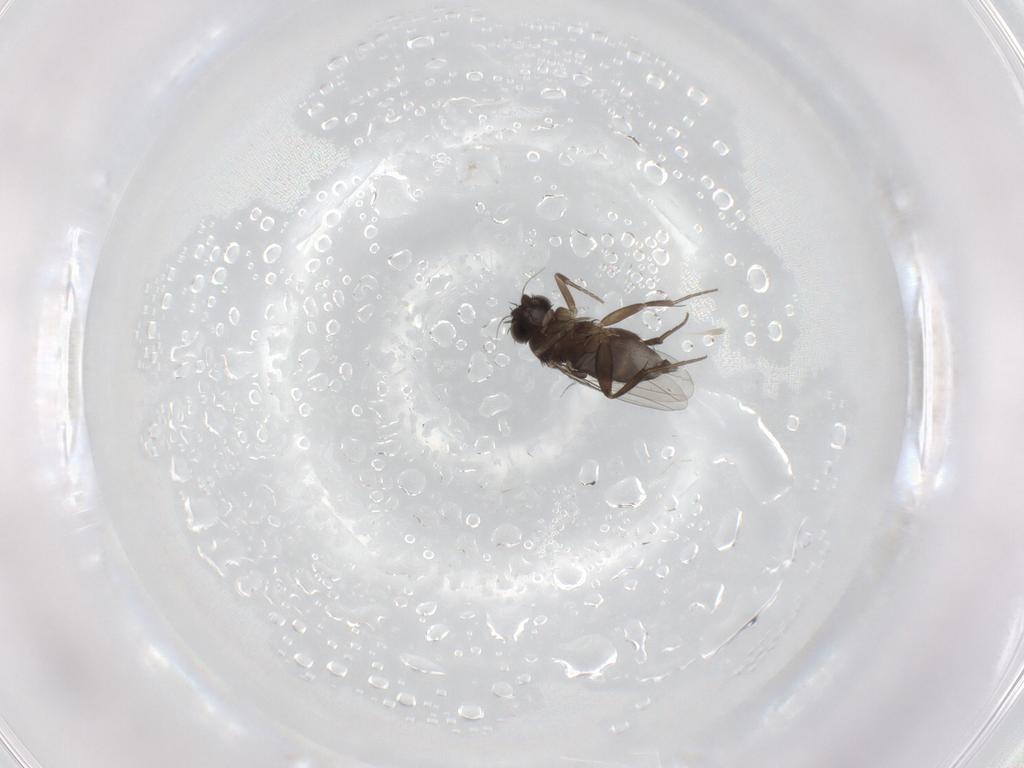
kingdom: Animalia
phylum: Arthropoda
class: Insecta
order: Diptera
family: Phoridae
